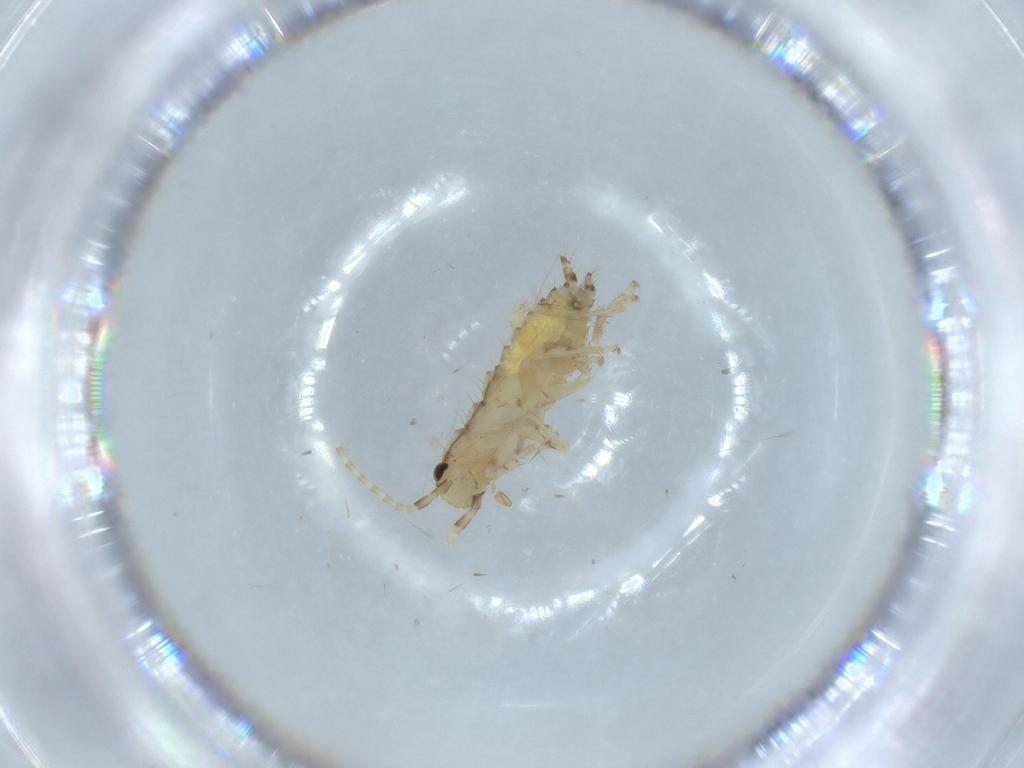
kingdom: Animalia
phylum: Arthropoda
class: Insecta
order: Blattodea
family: Ectobiidae
